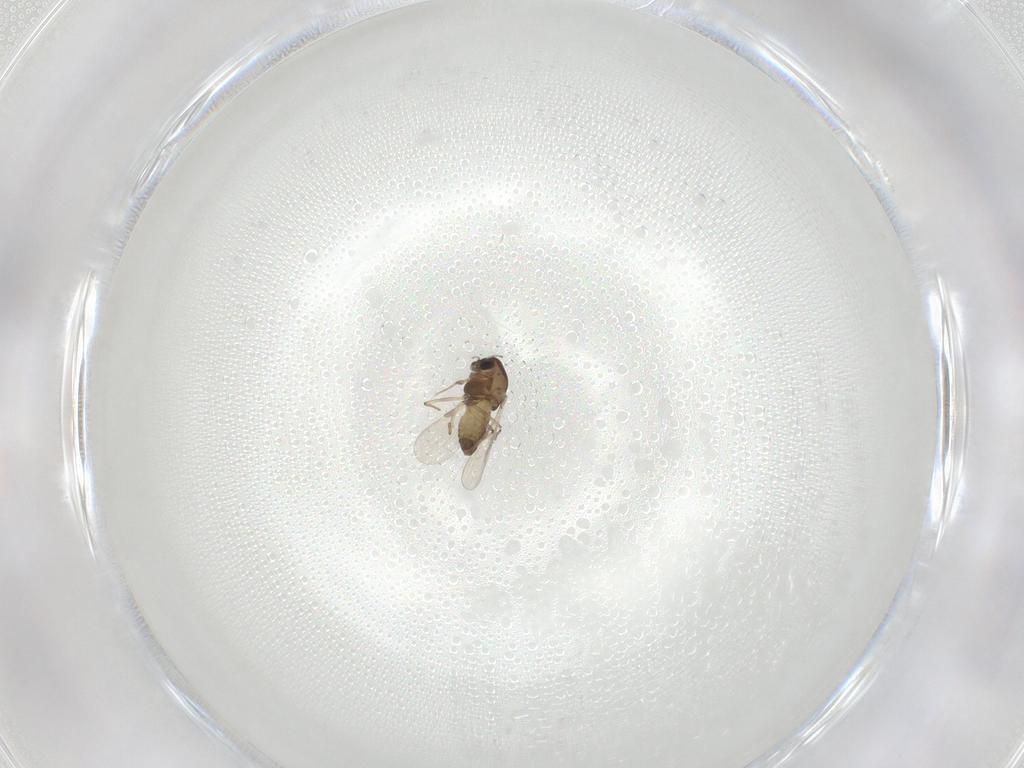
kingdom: Animalia
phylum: Arthropoda
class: Insecta
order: Diptera
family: Chironomidae
